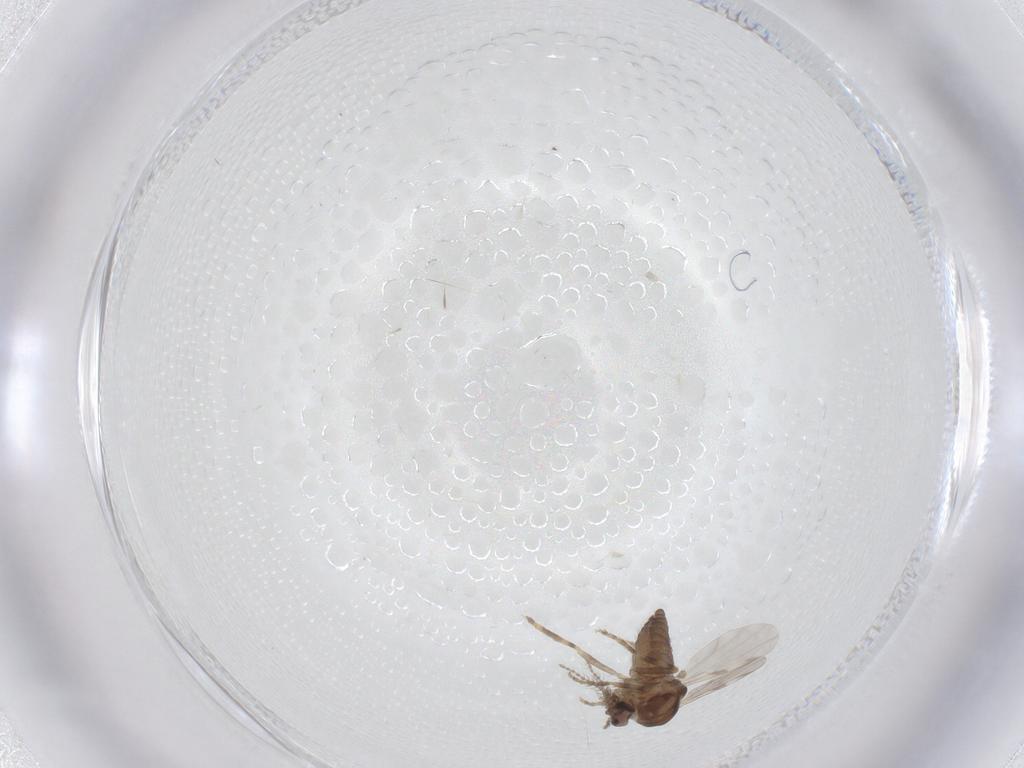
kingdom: Animalia
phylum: Arthropoda
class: Insecta
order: Diptera
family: Ceratopogonidae
